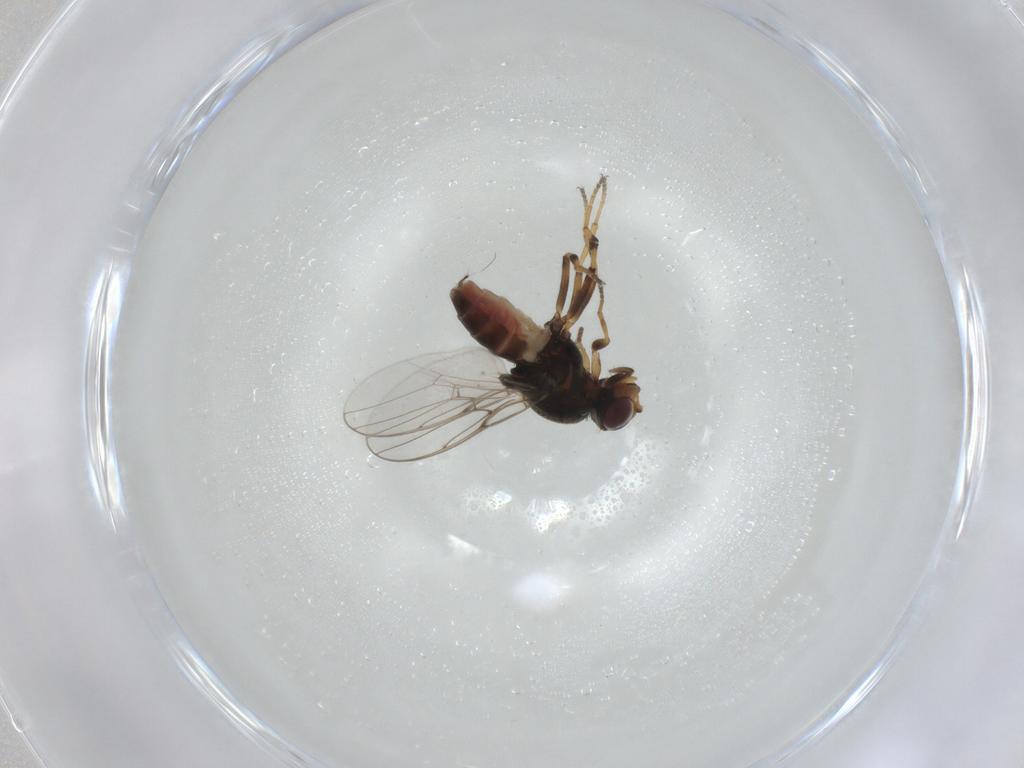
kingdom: Animalia
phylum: Arthropoda
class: Insecta
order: Diptera
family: Chloropidae
